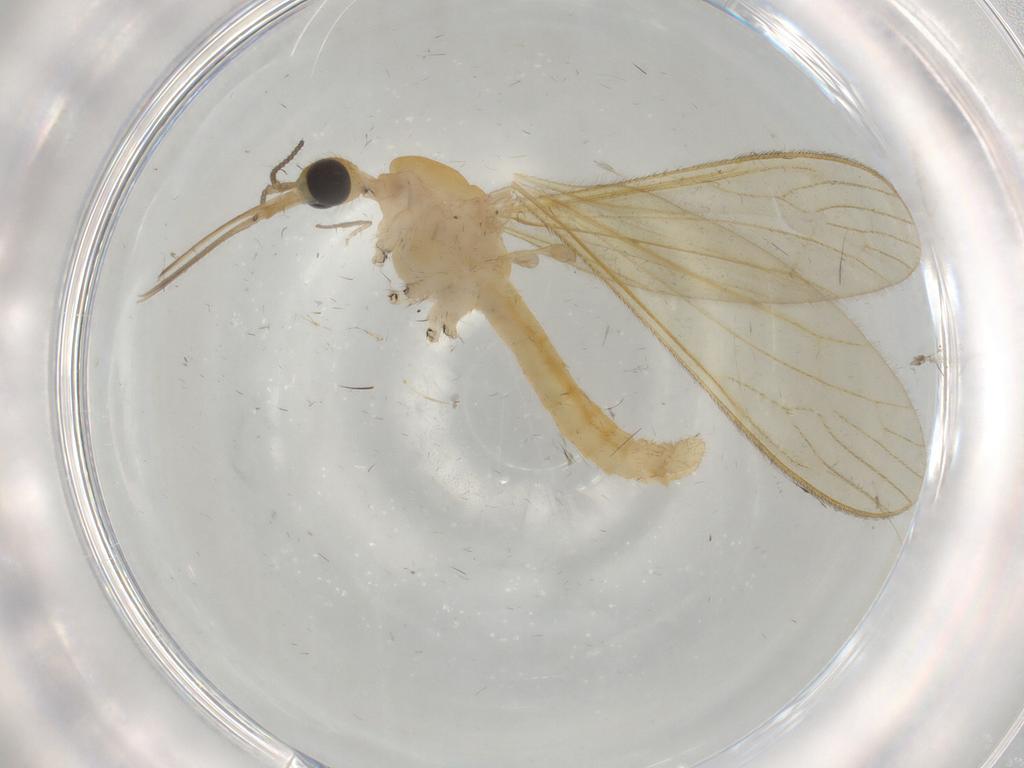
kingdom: Animalia
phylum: Arthropoda
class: Insecta
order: Diptera
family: Limoniidae
